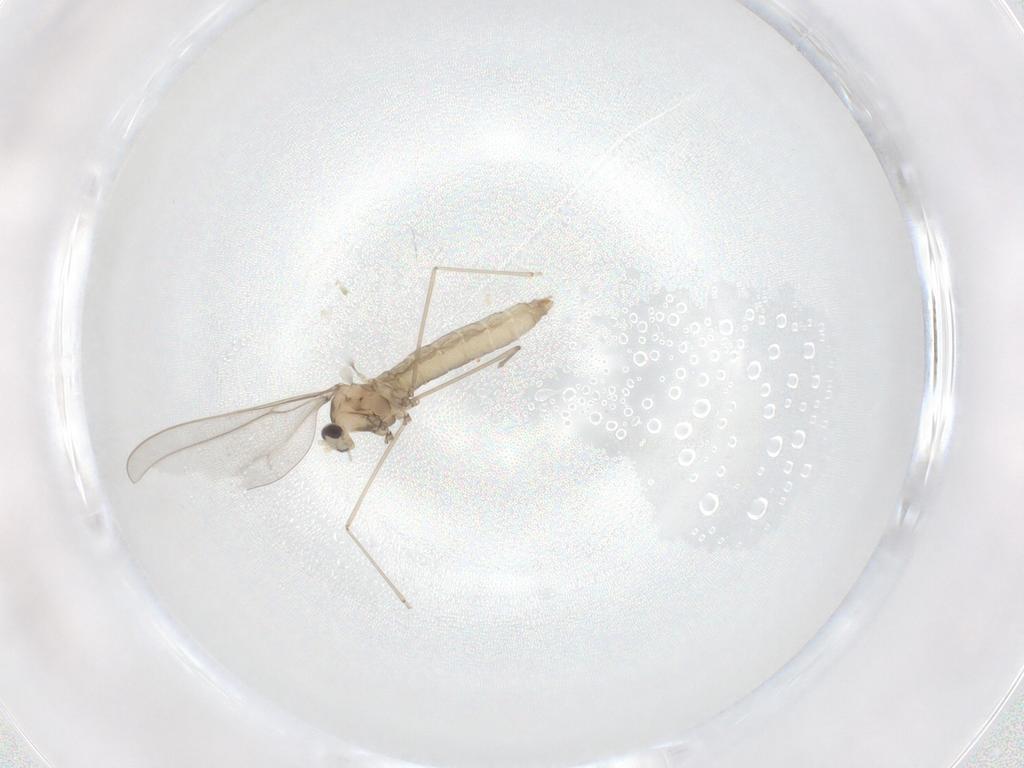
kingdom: Animalia
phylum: Arthropoda
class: Insecta
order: Diptera
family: Cecidomyiidae
